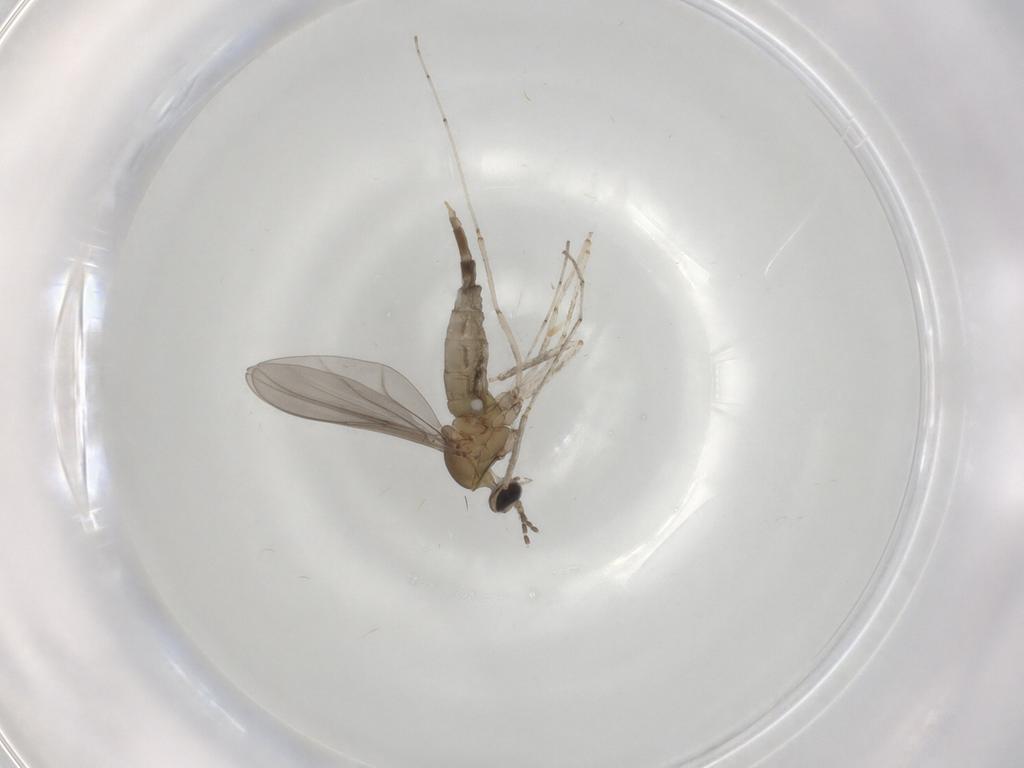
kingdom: Animalia
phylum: Arthropoda
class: Insecta
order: Diptera
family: Cecidomyiidae
